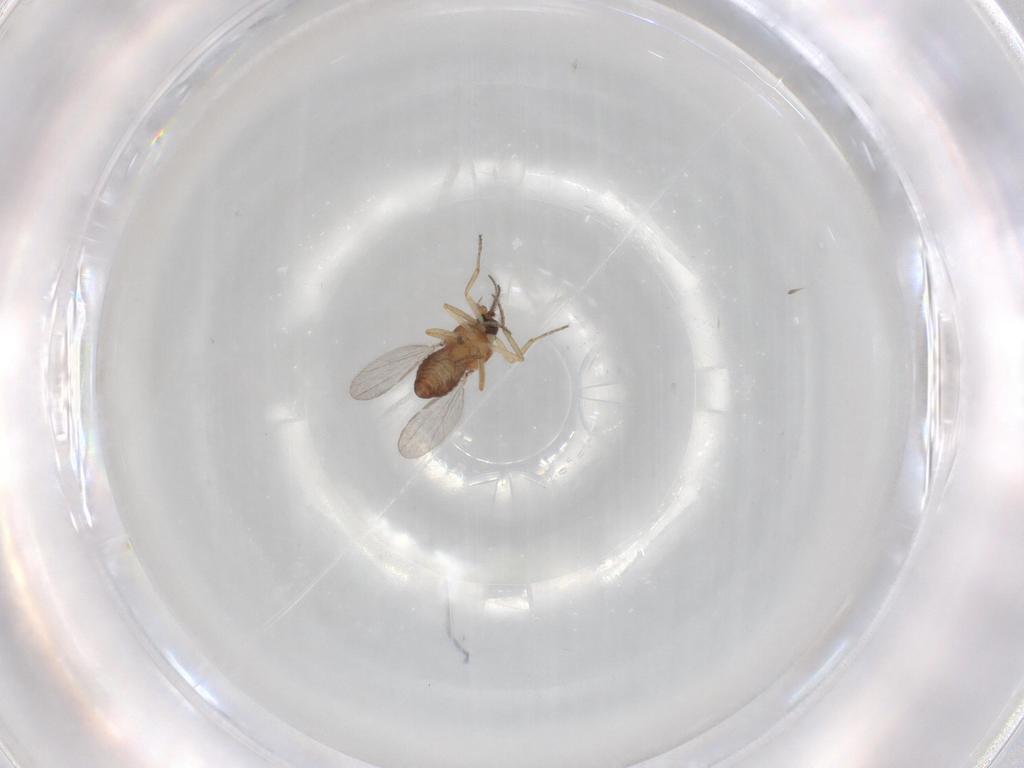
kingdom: Animalia
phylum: Arthropoda
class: Insecta
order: Diptera
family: Ceratopogonidae
